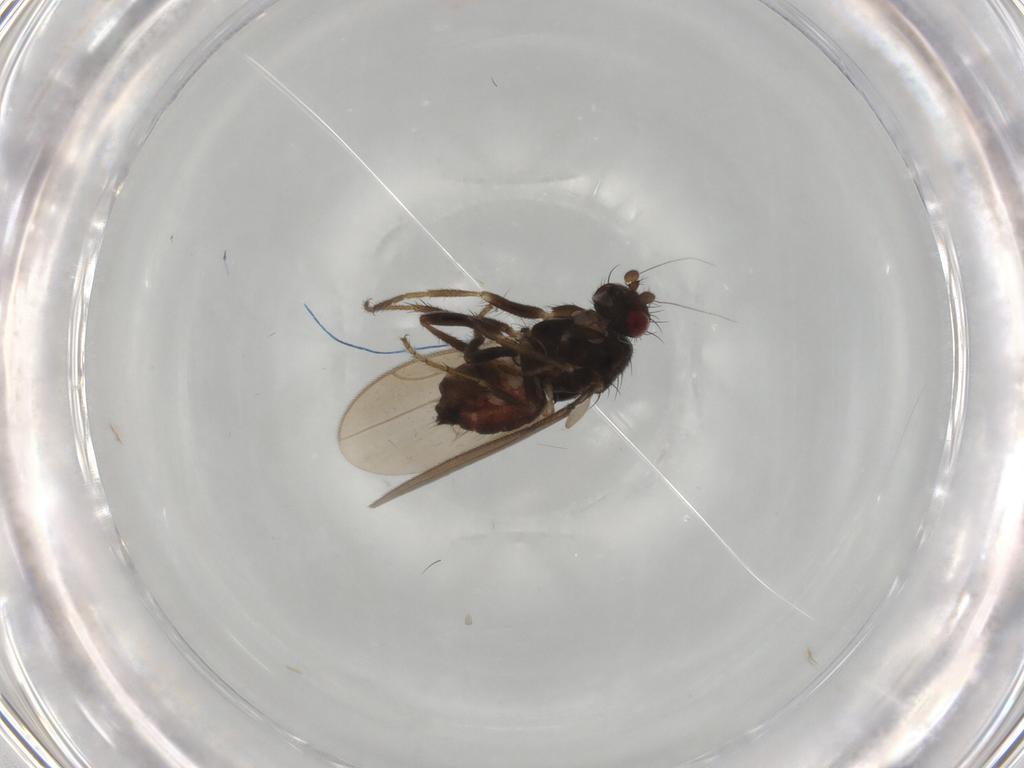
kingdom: Animalia
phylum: Arthropoda
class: Insecta
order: Diptera
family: Sphaeroceridae
